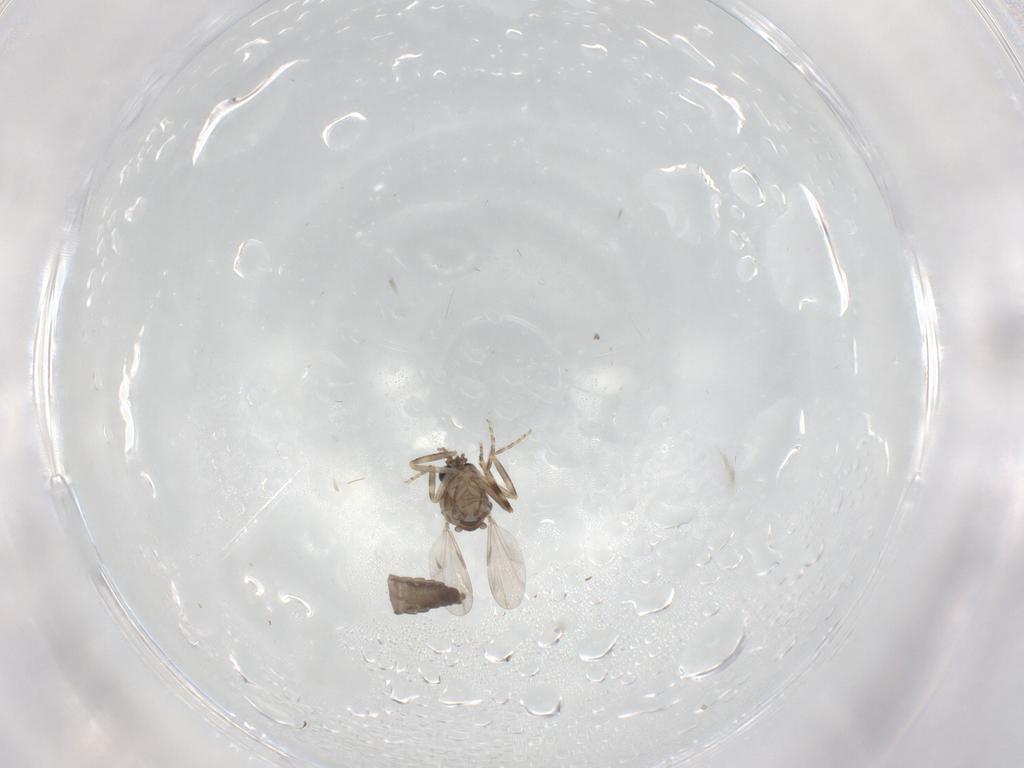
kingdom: Animalia
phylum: Arthropoda
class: Insecta
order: Diptera
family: Ceratopogonidae
